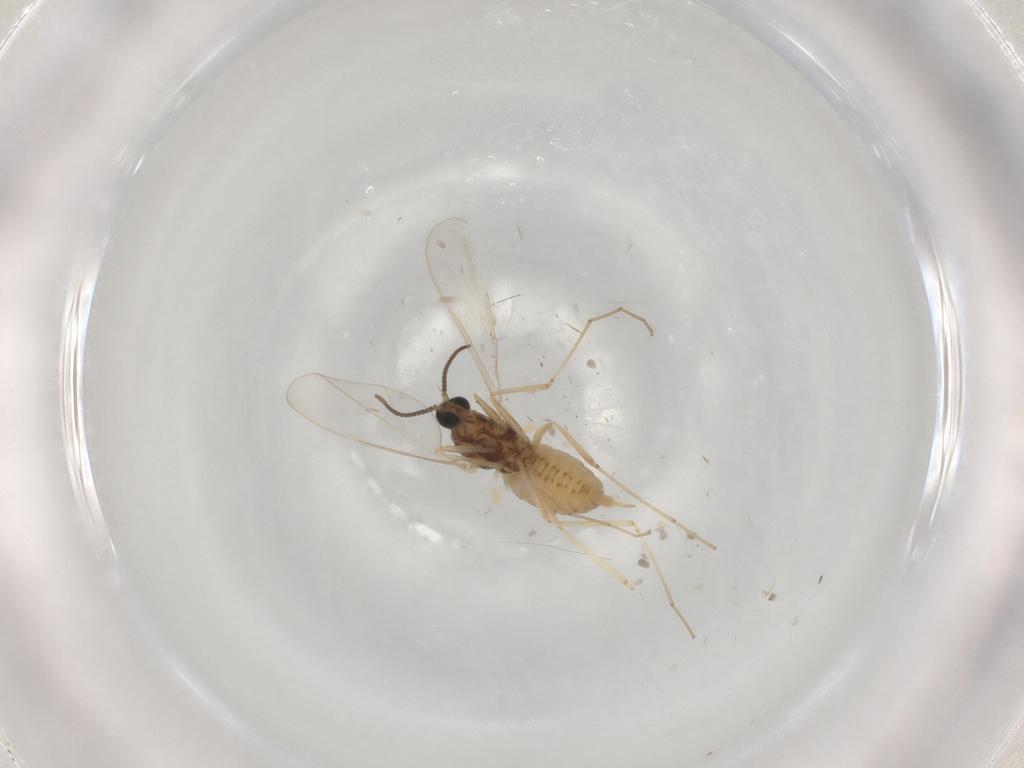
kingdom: Animalia
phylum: Arthropoda
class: Insecta
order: Diptera
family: Cecidomyiidae
